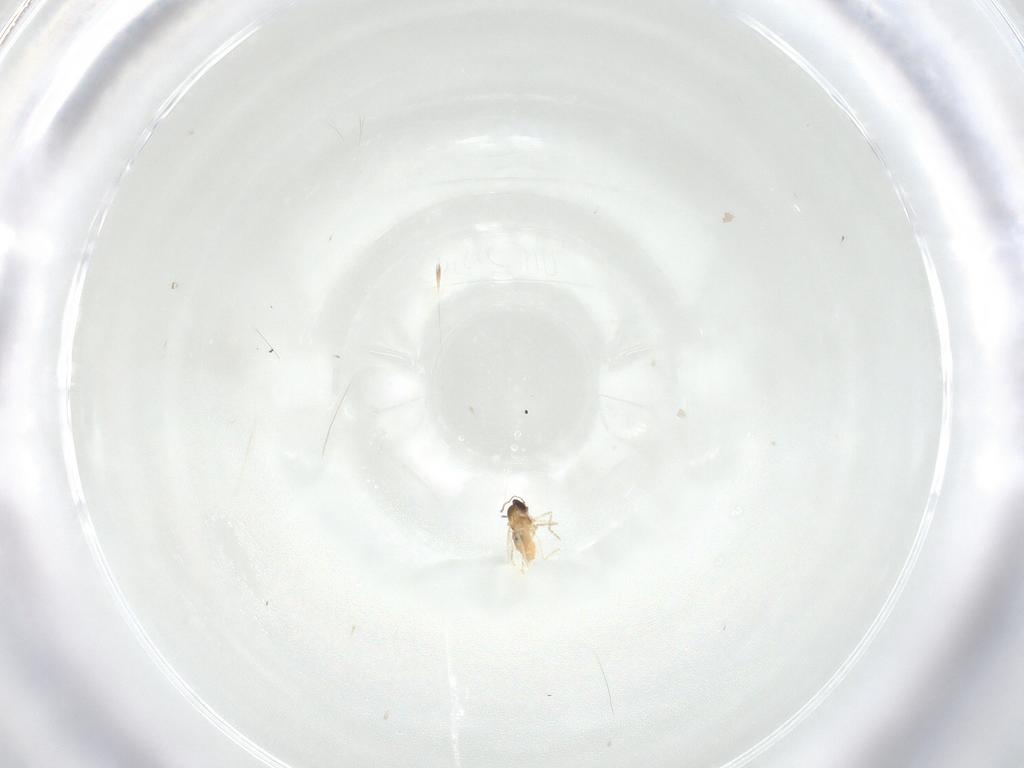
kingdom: Animalia
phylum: Arthropoda
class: Insecta
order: Diptera
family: Cecidomyiidae
